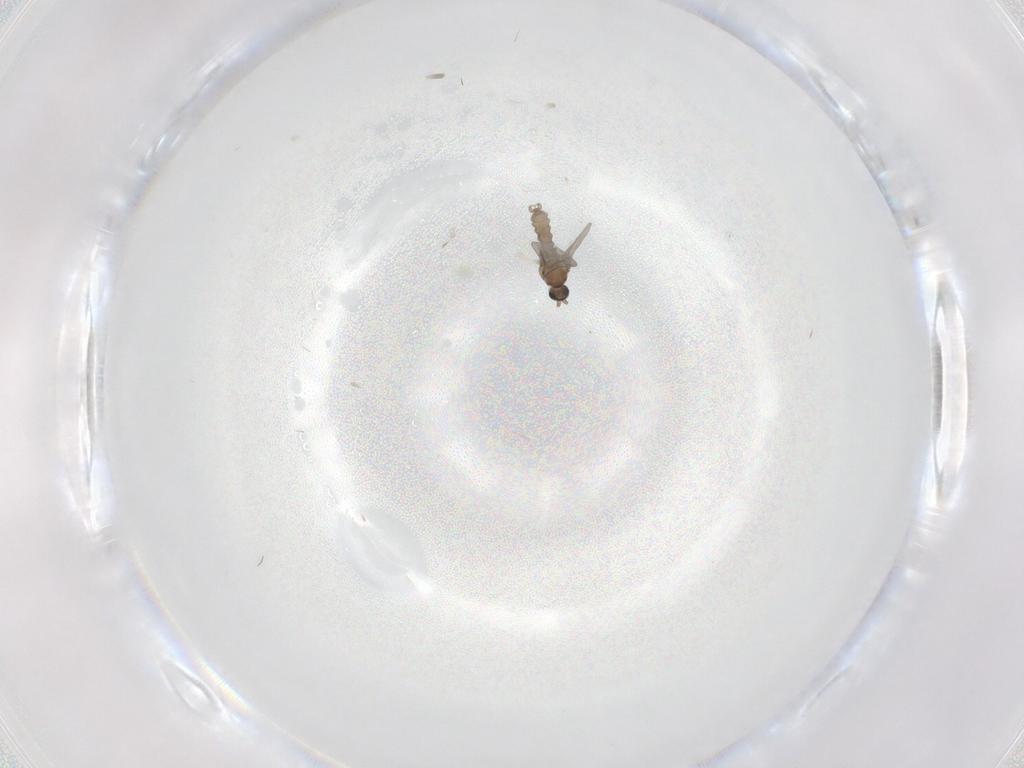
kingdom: Animalia
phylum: Arthropoda
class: Insecta
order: Diptera
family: Cecidomyiidae
